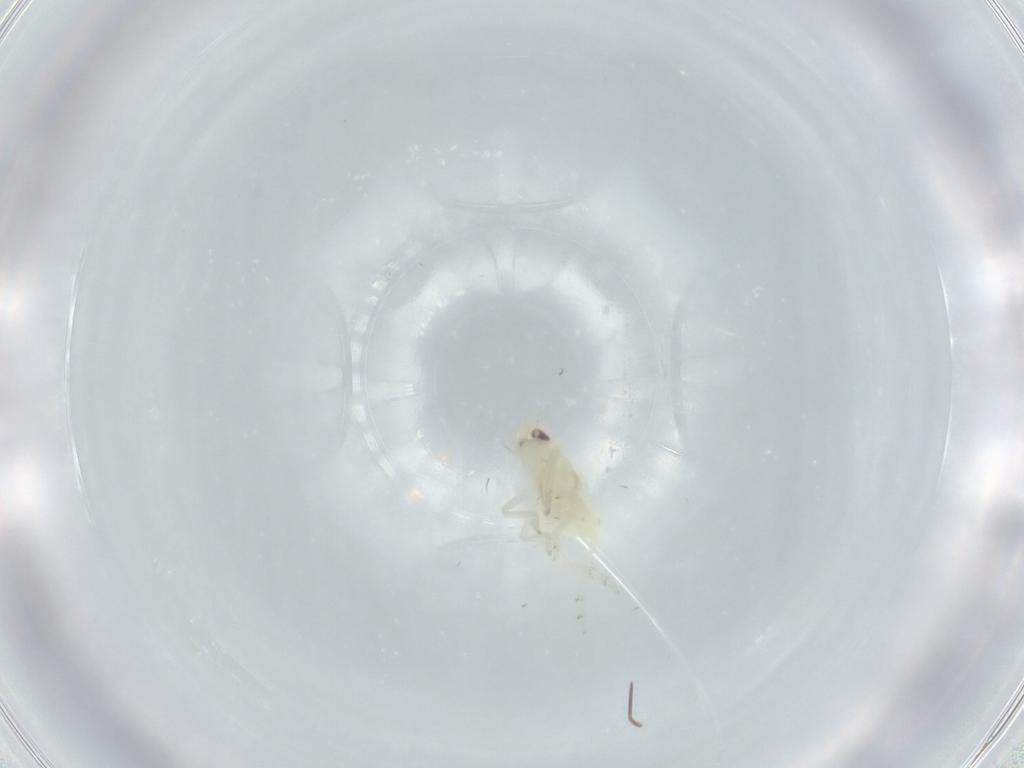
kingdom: Animalia
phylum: Arthropoda
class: Insecta
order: Hemiptera
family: Tropiduchidae
